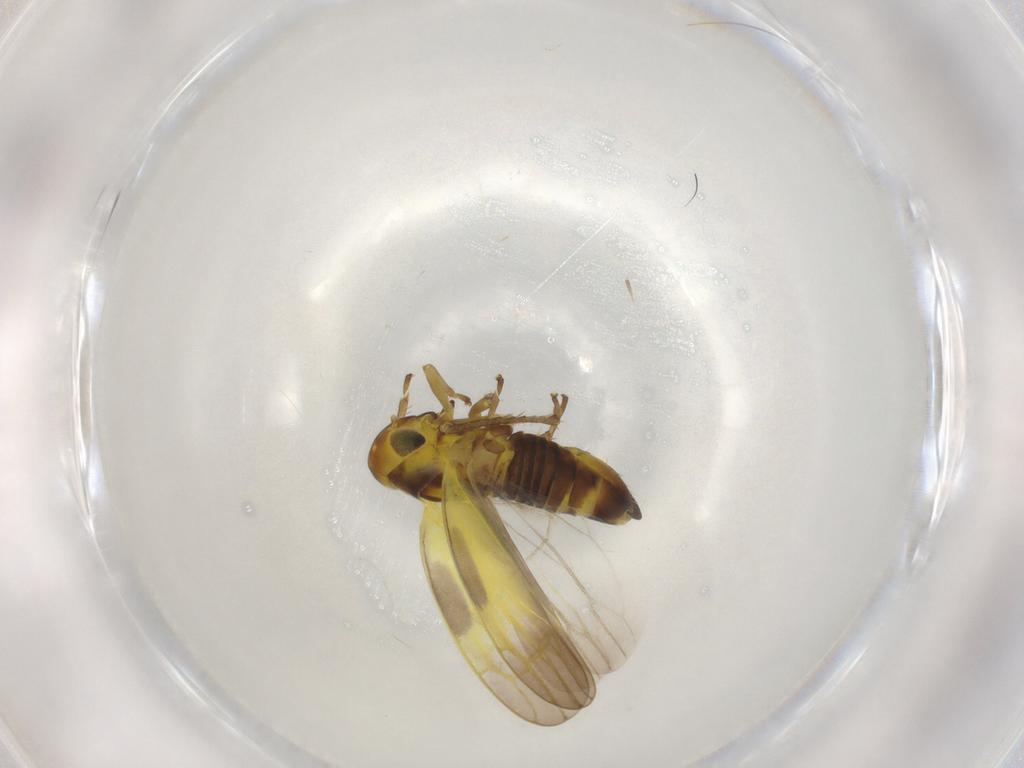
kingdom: Animalia
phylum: Arthropoda
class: Insecta
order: Hemiptera
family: Cicadellidae
